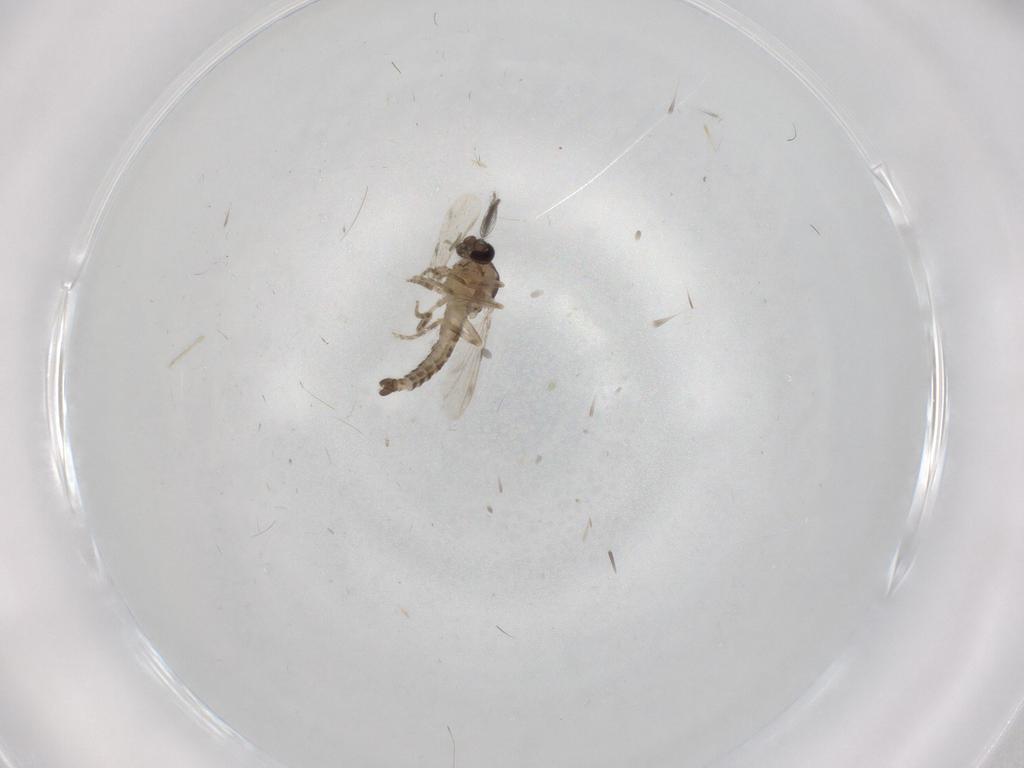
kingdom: Animalia
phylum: Arthropoda
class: Insecta
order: Diptera
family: Ceratopogonidae
